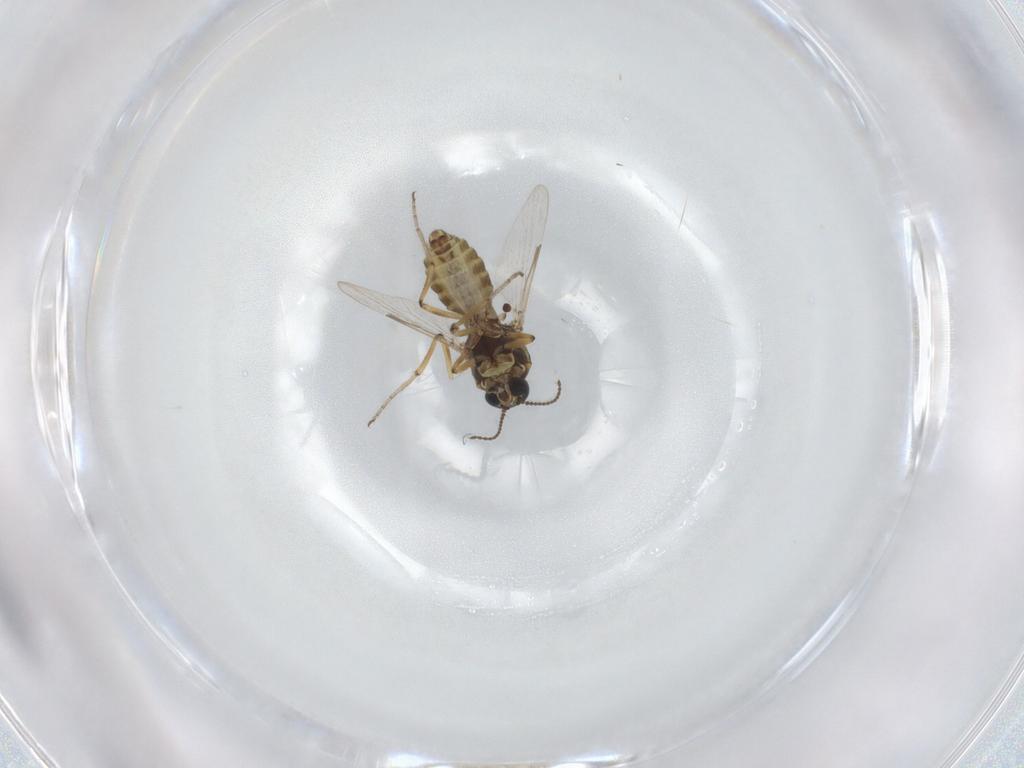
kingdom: Animalia
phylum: Arthropoda
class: Insecta
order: Diptera
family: Ceratopogonidae
